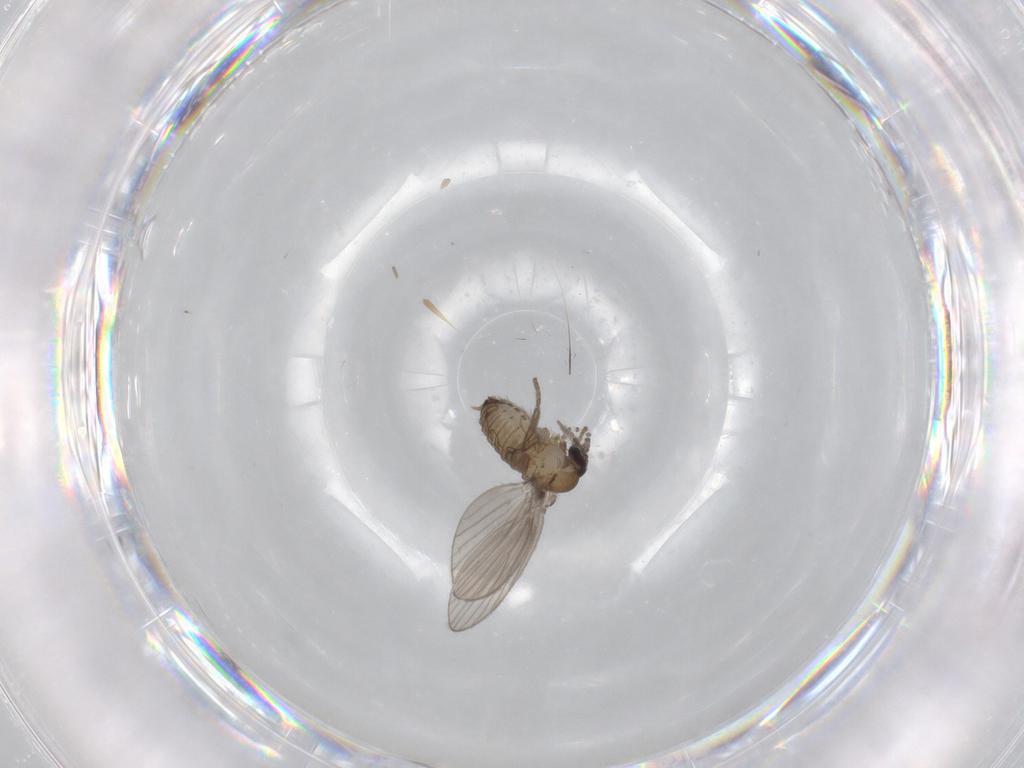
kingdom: Animalia
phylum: Arthropoda
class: Insecta
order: Diptera
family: Psychodidae
